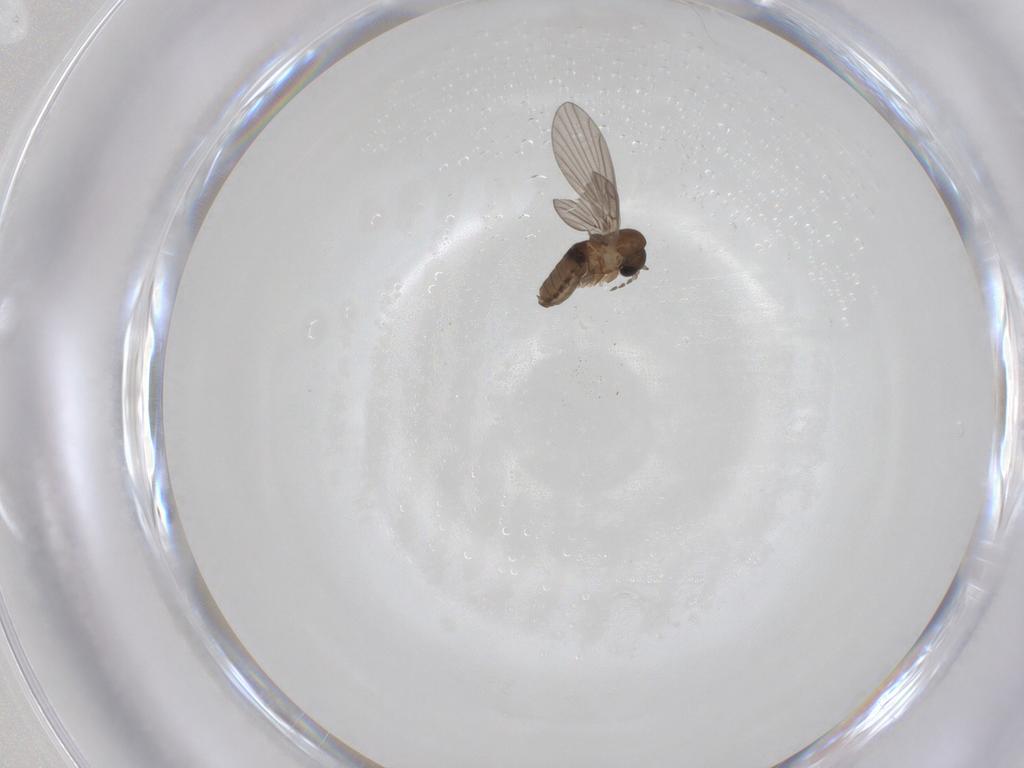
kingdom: Animalia
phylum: Arthropoda
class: Insecta
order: Diptera
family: Psychodidae
